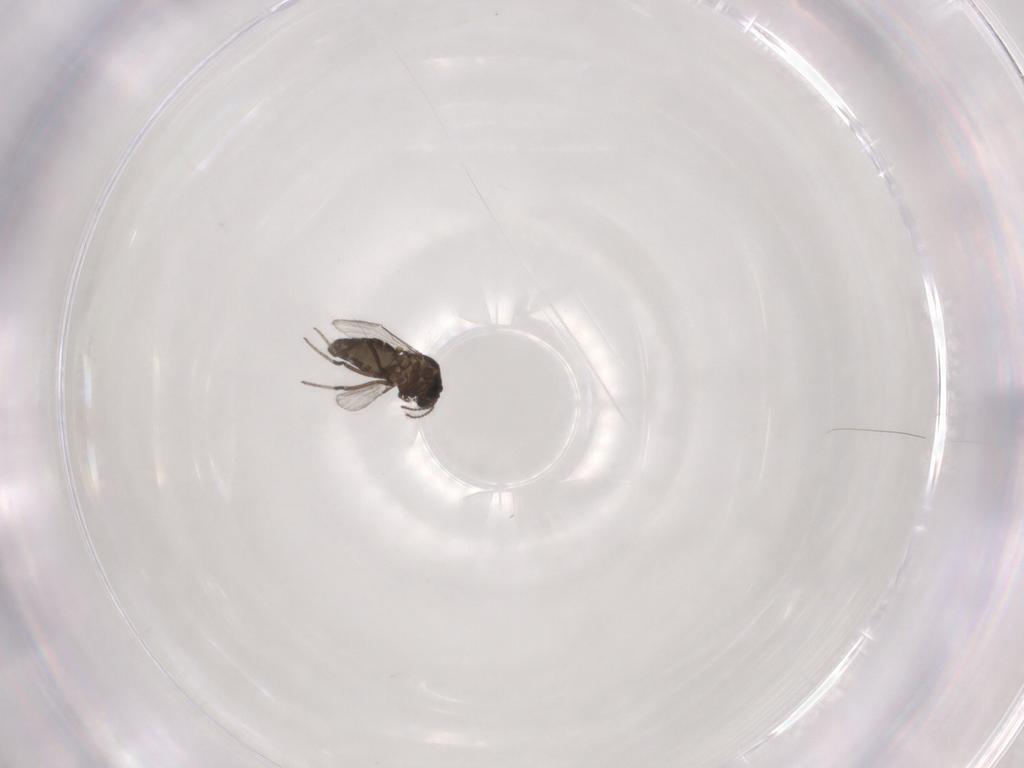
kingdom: Animalia
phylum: Arthropoda
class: Insecta
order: Diptera
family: Ceratopogonidae
